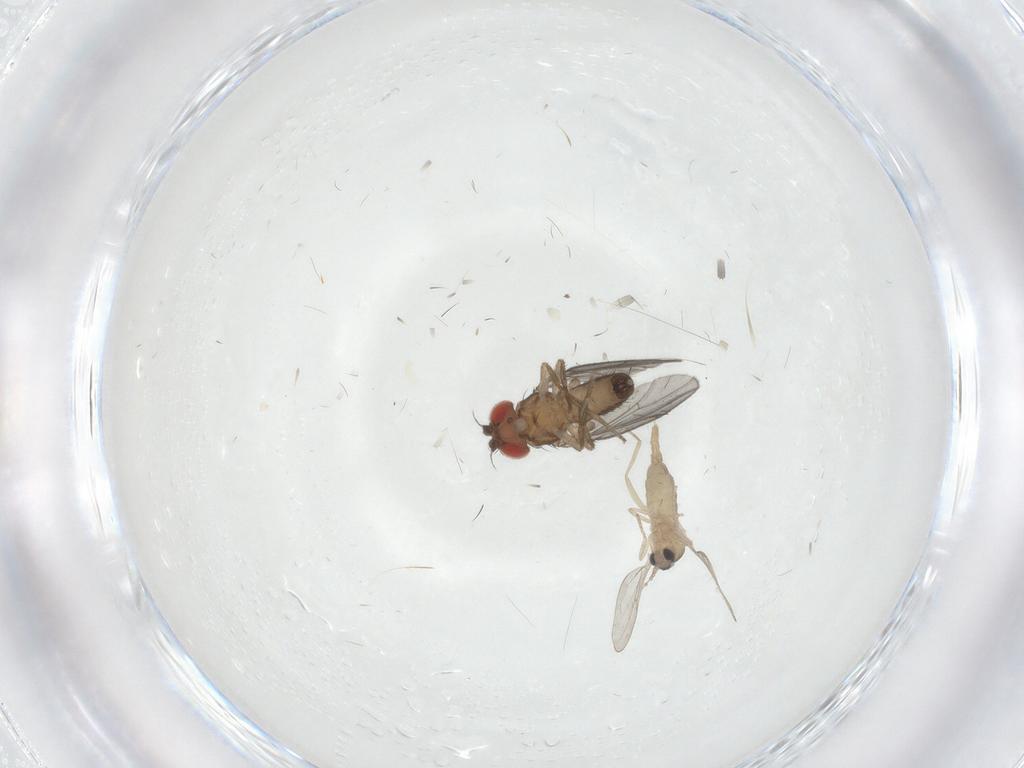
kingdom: Animalia
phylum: Arthropoda
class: Insecta
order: Diptera
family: Drosophilidae
